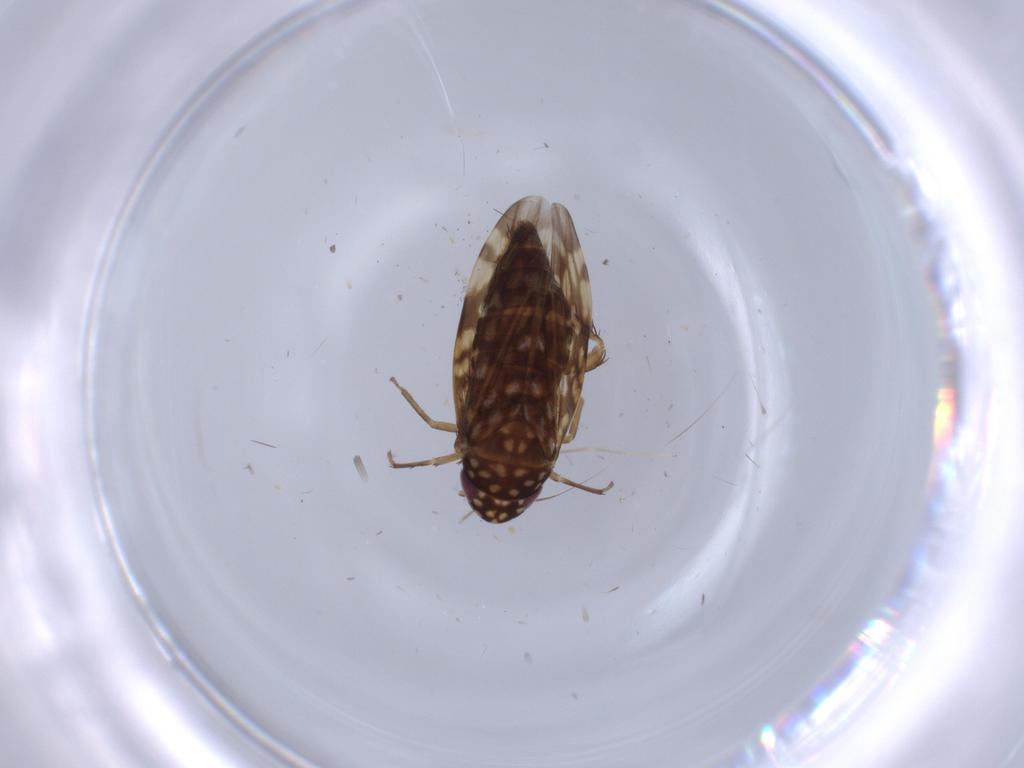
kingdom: Animalia
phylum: Arthropoda
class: Insecta
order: Hemiptera
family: Cicadellidae
